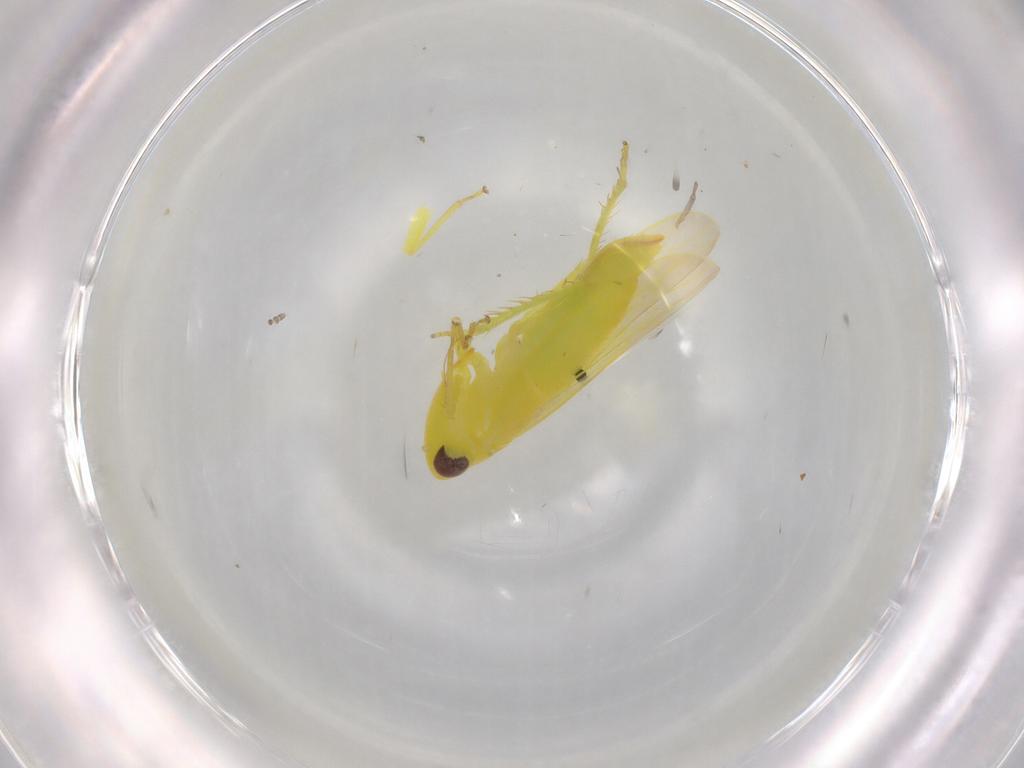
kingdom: Animalia
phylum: Arthropoda
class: Insecta
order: Hemiptera
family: Cicadellidae
